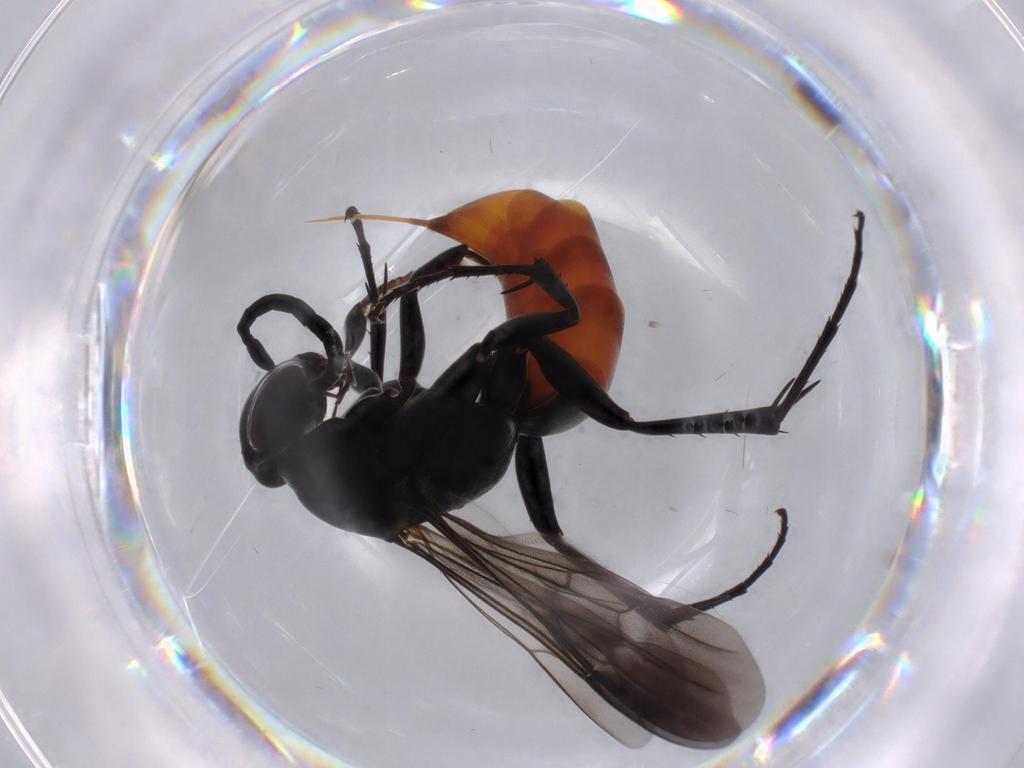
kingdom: Animalia
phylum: Arthropoda
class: Insecta
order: Hymenoptera
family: Pompilidae
